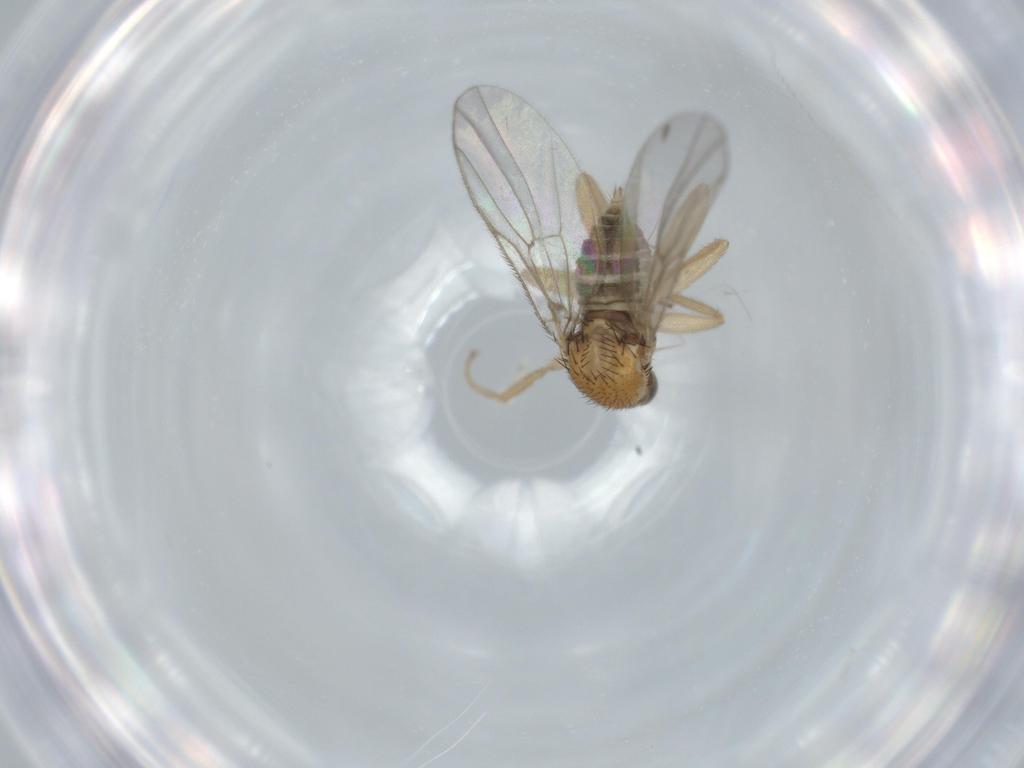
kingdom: Animalia
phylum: Arthropoda
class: Insecta
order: Diptera
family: Hybotidae
